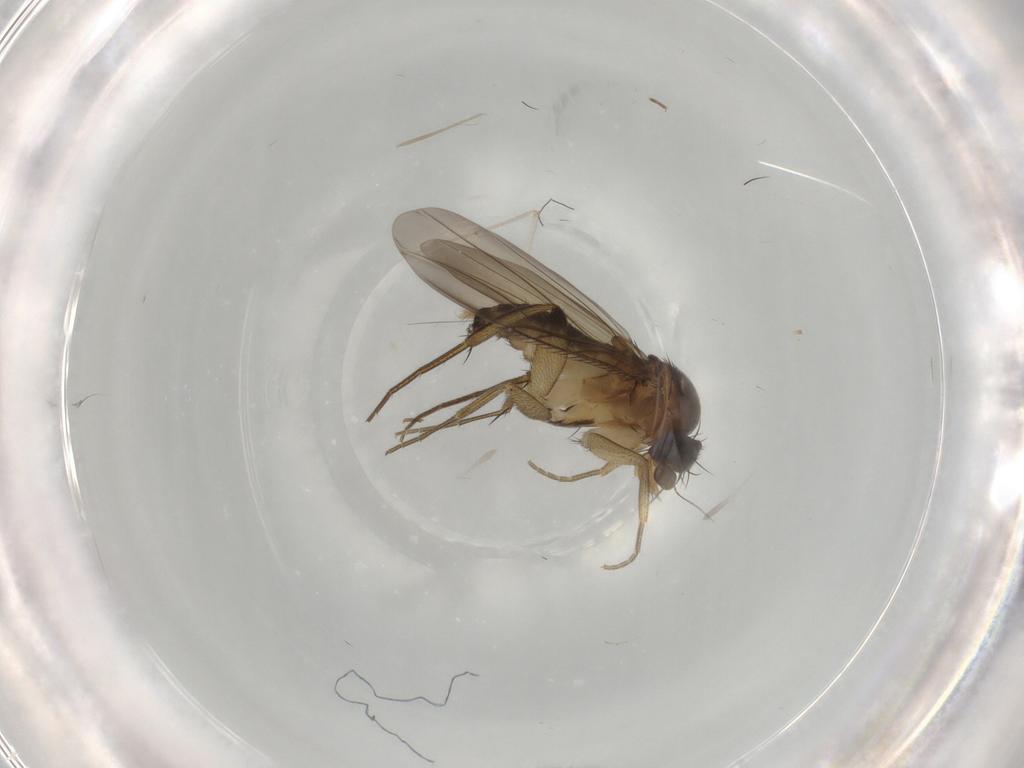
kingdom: Animalia
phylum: Arthropoda
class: Insecta
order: Diptera
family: Phoridae
